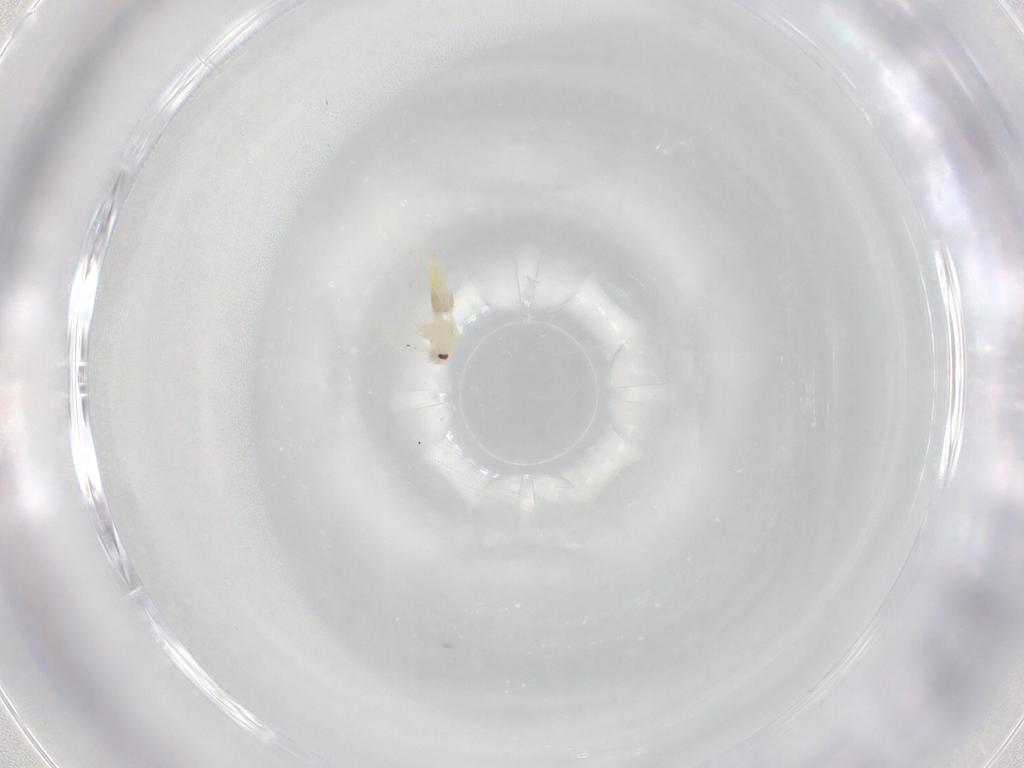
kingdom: Animalia
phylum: Arthropoda
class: Insecta
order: Hemiptera
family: Aleyrodidae
